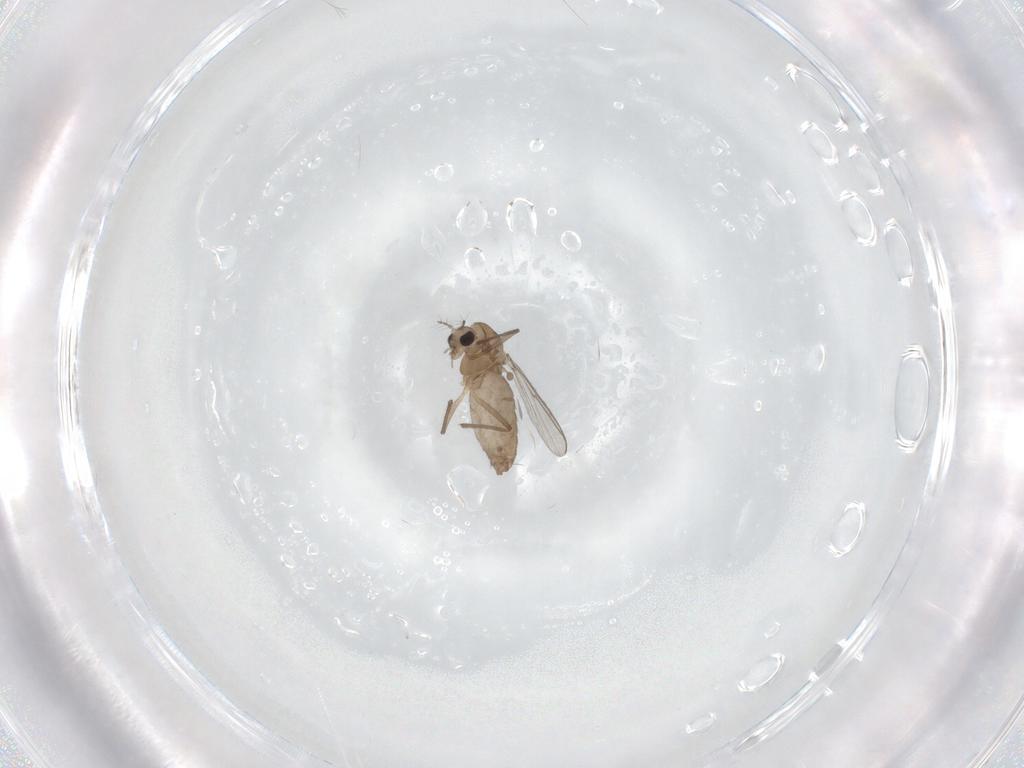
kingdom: Animalia
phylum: Arthropoda
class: Insecta
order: Diptera
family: Chironomidae
